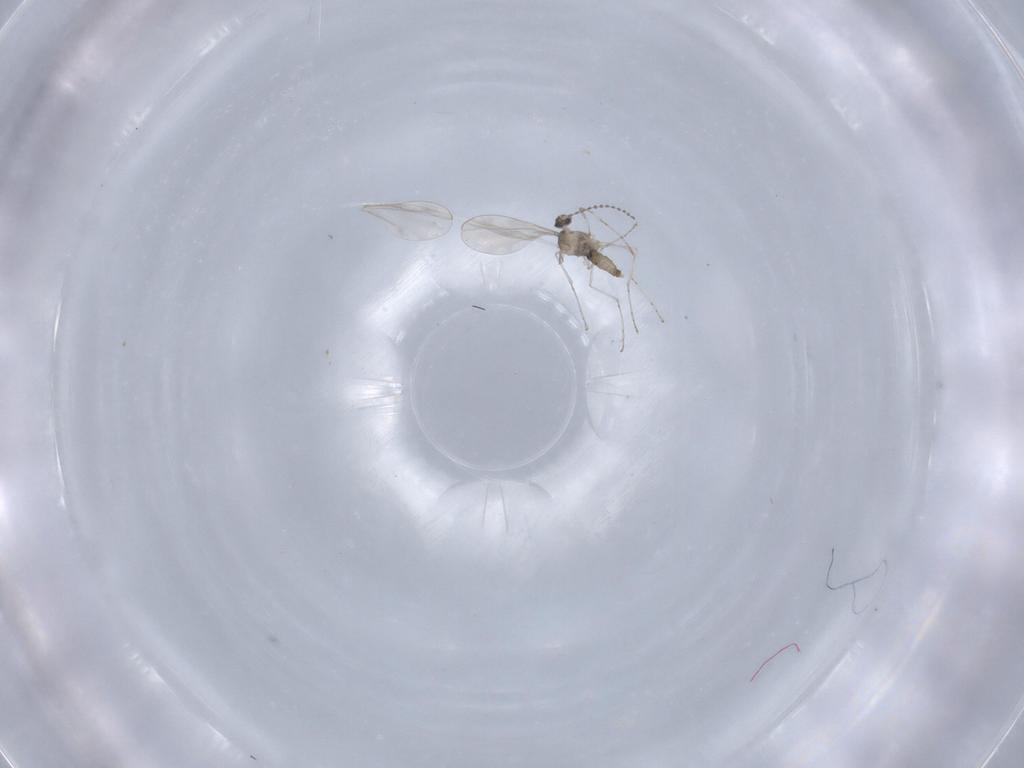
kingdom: Animalia
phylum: Arthropoda
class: Insecta
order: Diptera
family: Cecidomyiidae
